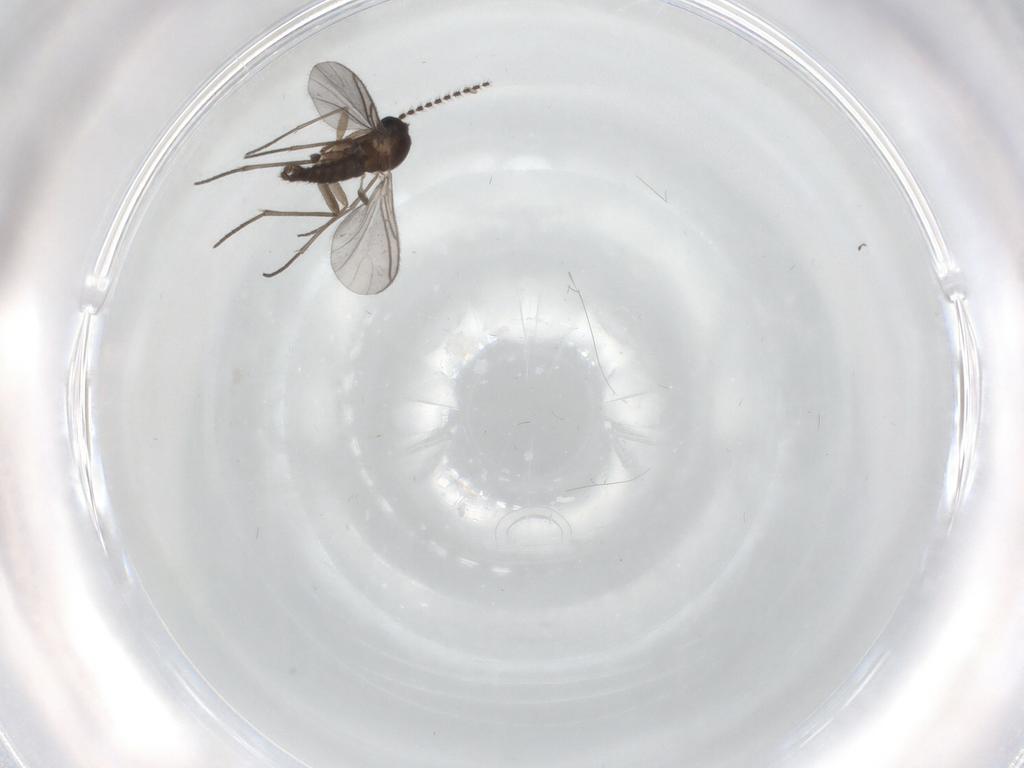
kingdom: Animalia
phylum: Arthropoda
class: Insecta
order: Diptera
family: Sciaridae
